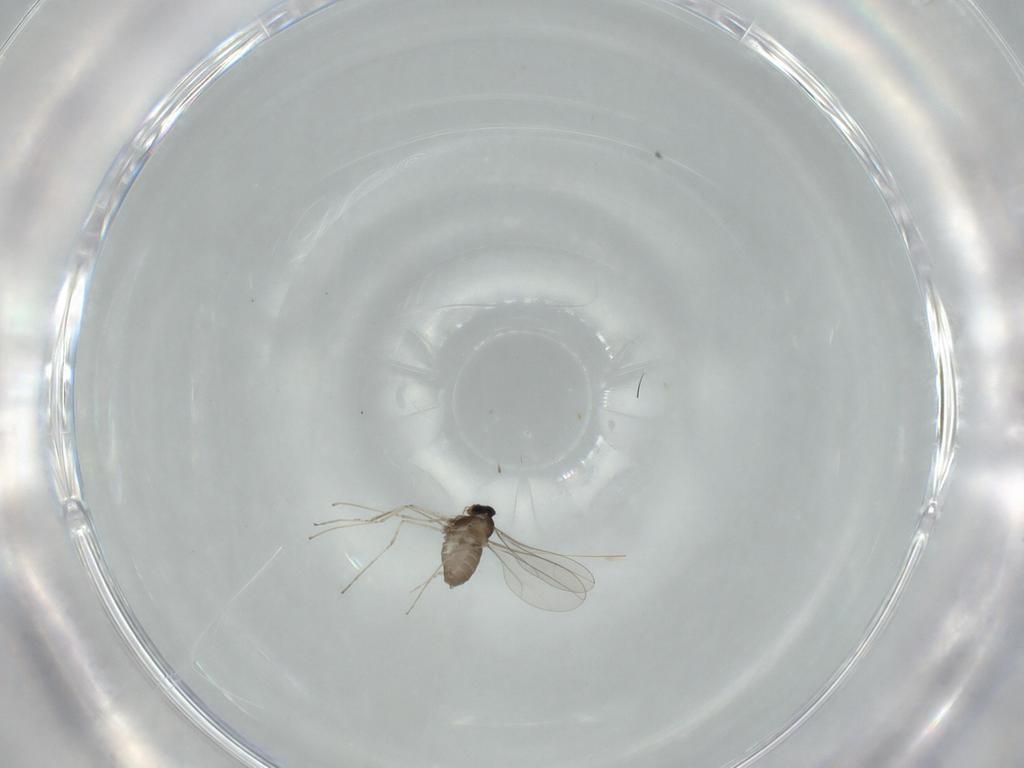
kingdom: Animalia
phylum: Arthropoda
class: Insecta
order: Diptera
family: Cecidomyiidae
